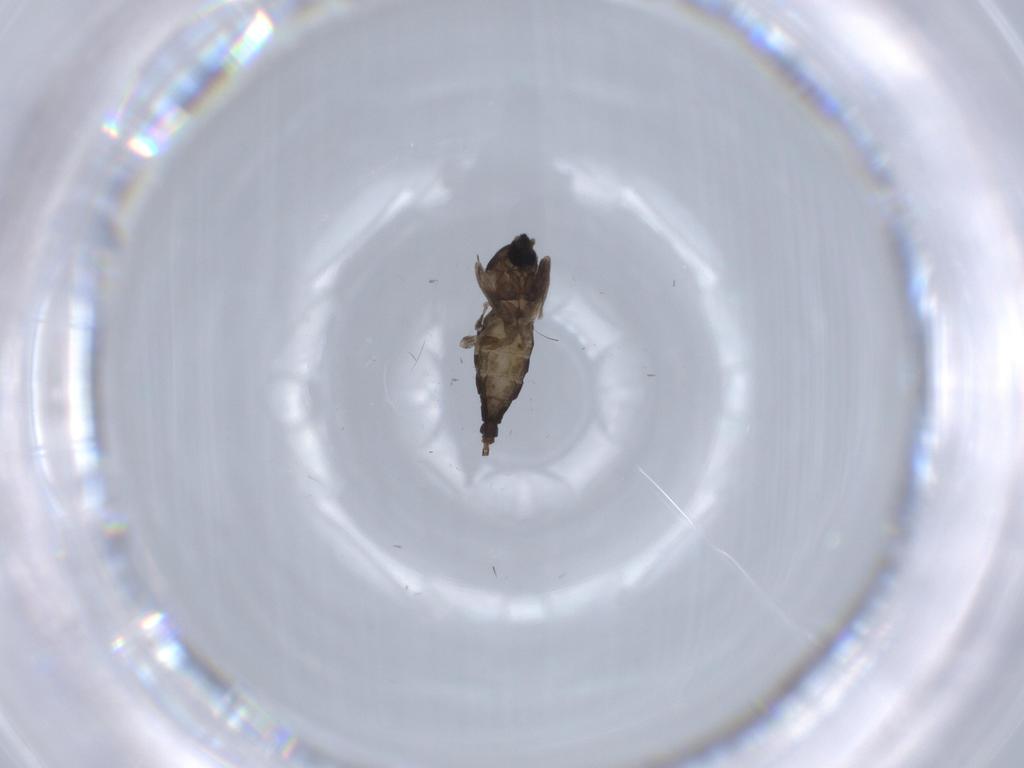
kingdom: Animalia
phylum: Arthropoda
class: Insecta
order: Diptera
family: Cecidomyiidae
